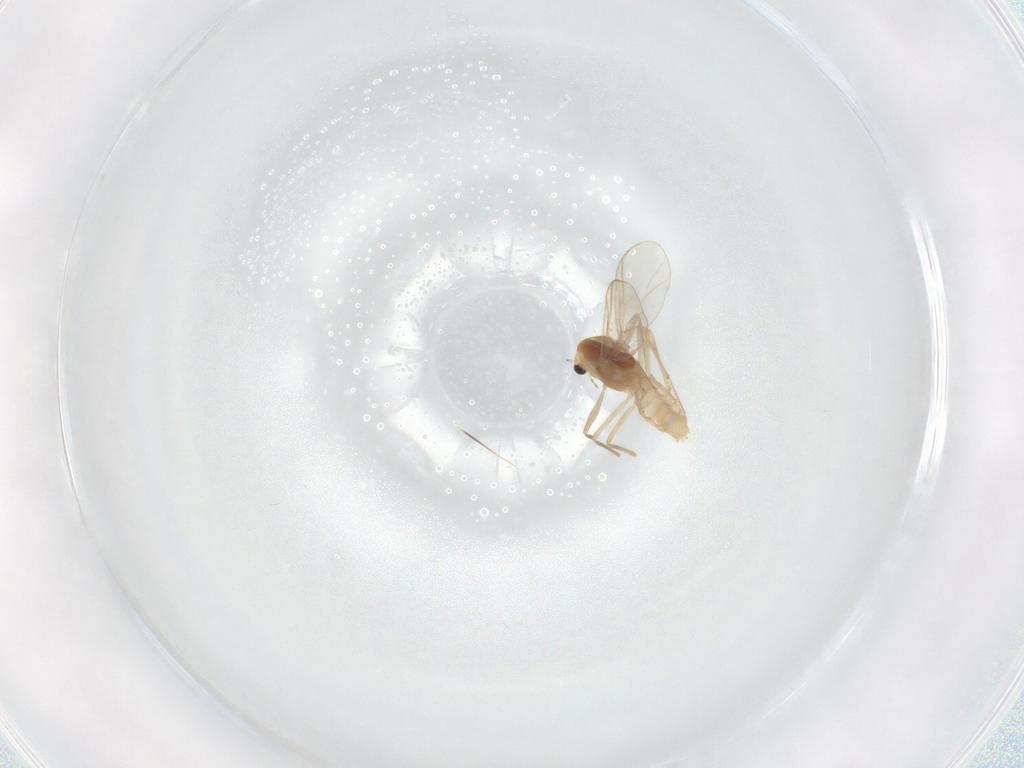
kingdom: Animalia
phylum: Arthropoda
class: Insecta
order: Diptera
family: Chironomidae
